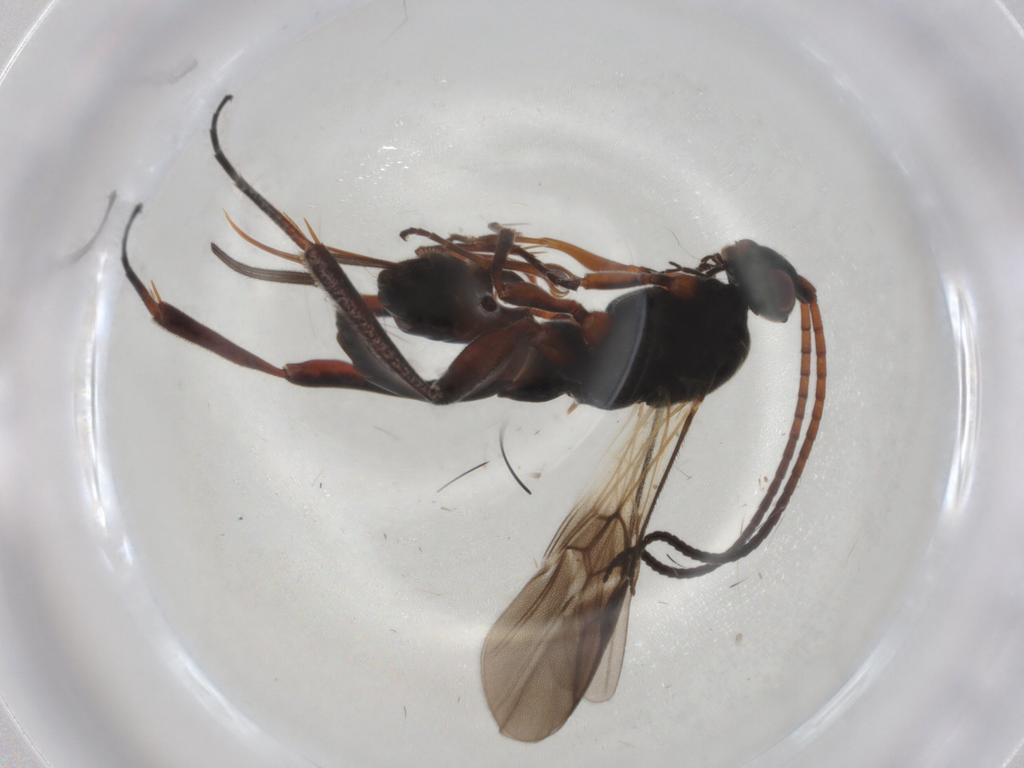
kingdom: Animalia
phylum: Arthropoda
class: Insecta
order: Hymenoptera
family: Braconidae
